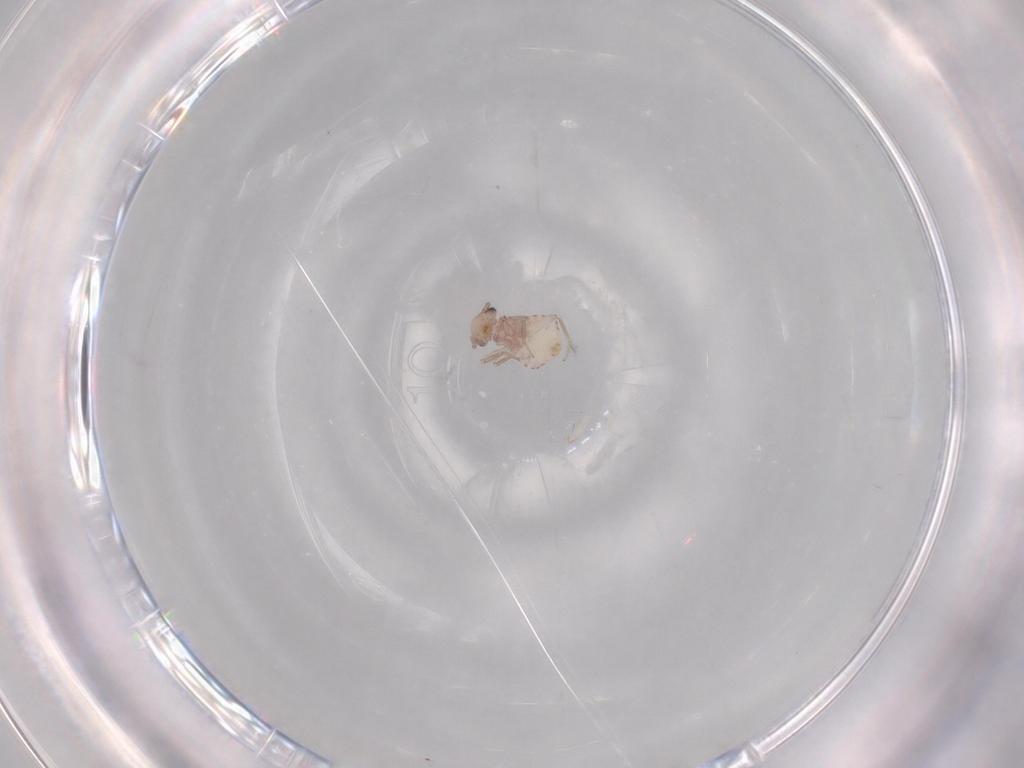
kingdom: Animalia
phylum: Arthropoda
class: Insecta
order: Psocodea
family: Psoquillidae
